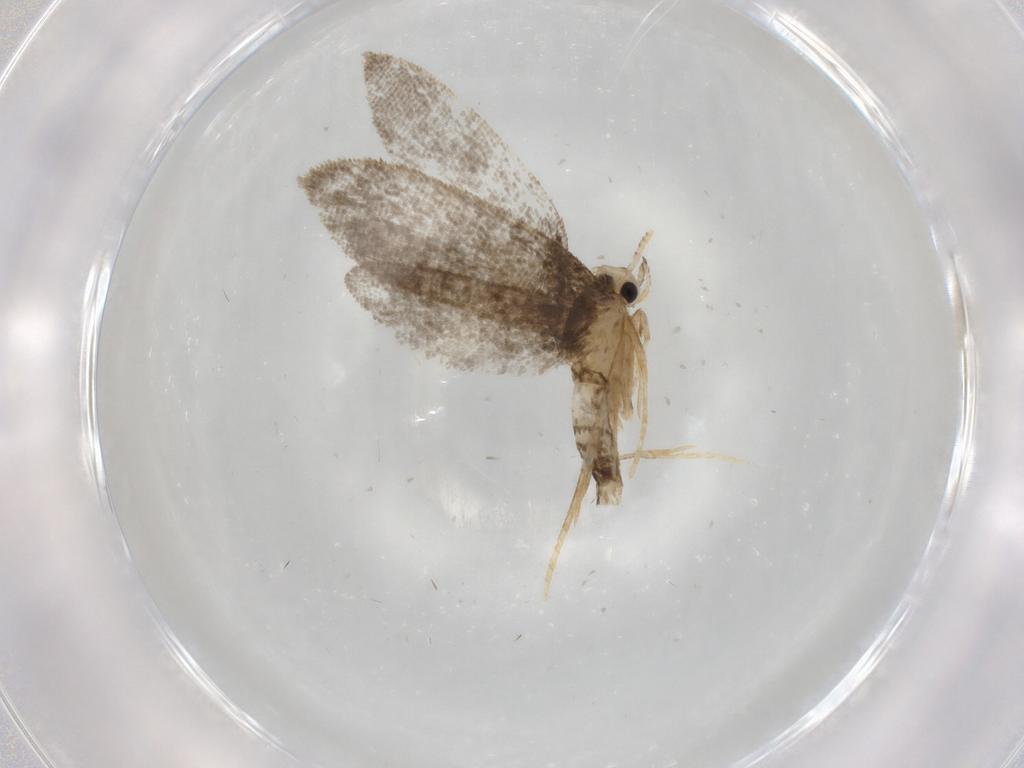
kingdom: Animalia
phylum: Arthropoda
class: Insecta
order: Lepidoptera
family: Psychidae
